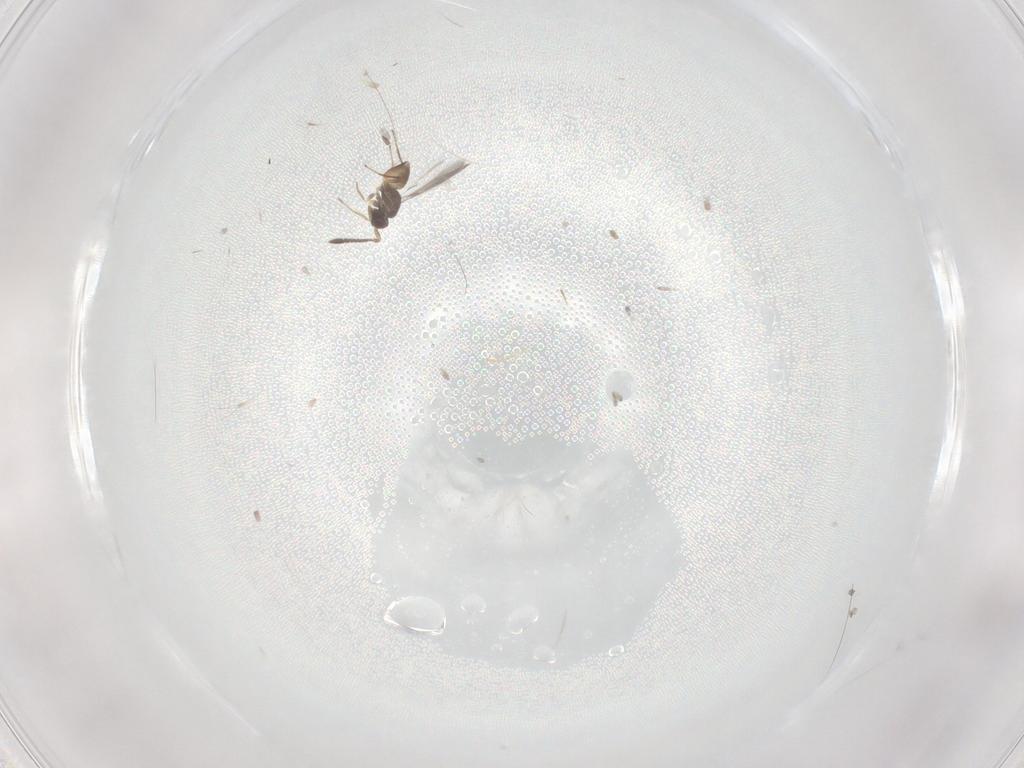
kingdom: Animalia
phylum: Arthropoda
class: Insecta
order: Hymenoptera
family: Mymaridae
